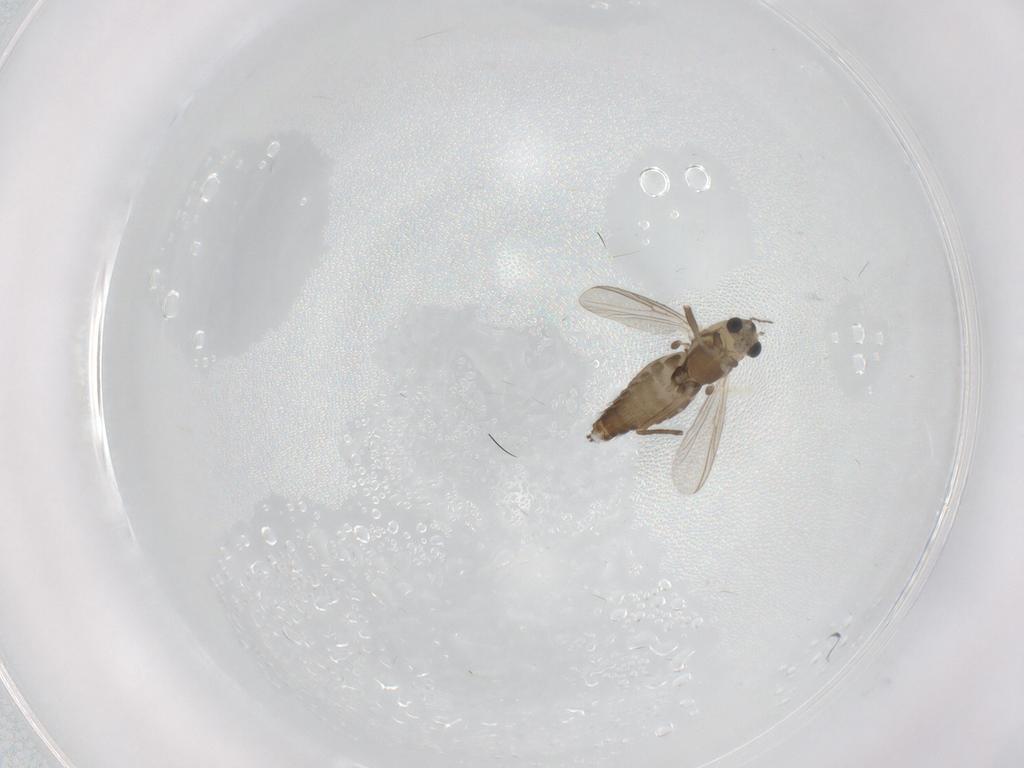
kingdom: Animalia
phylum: Arthropoda
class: Insecta
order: Diptera
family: Chironomidae
